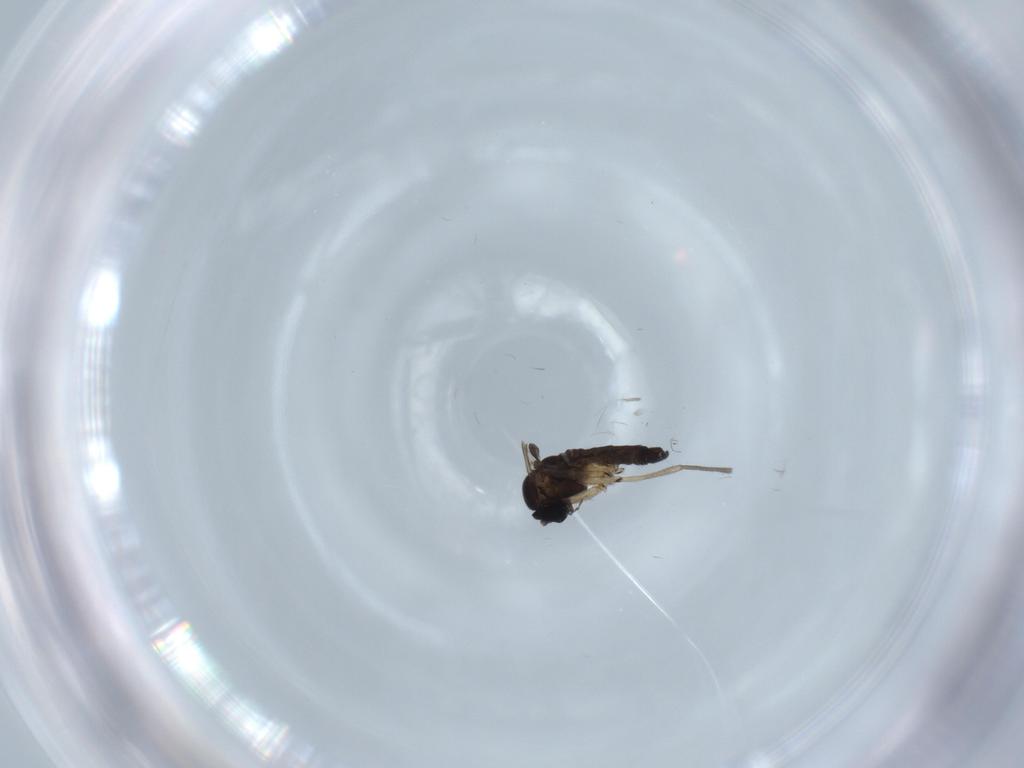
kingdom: Animalia
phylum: Arthropoda
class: Insecta
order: Diptera
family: Sciaridae
